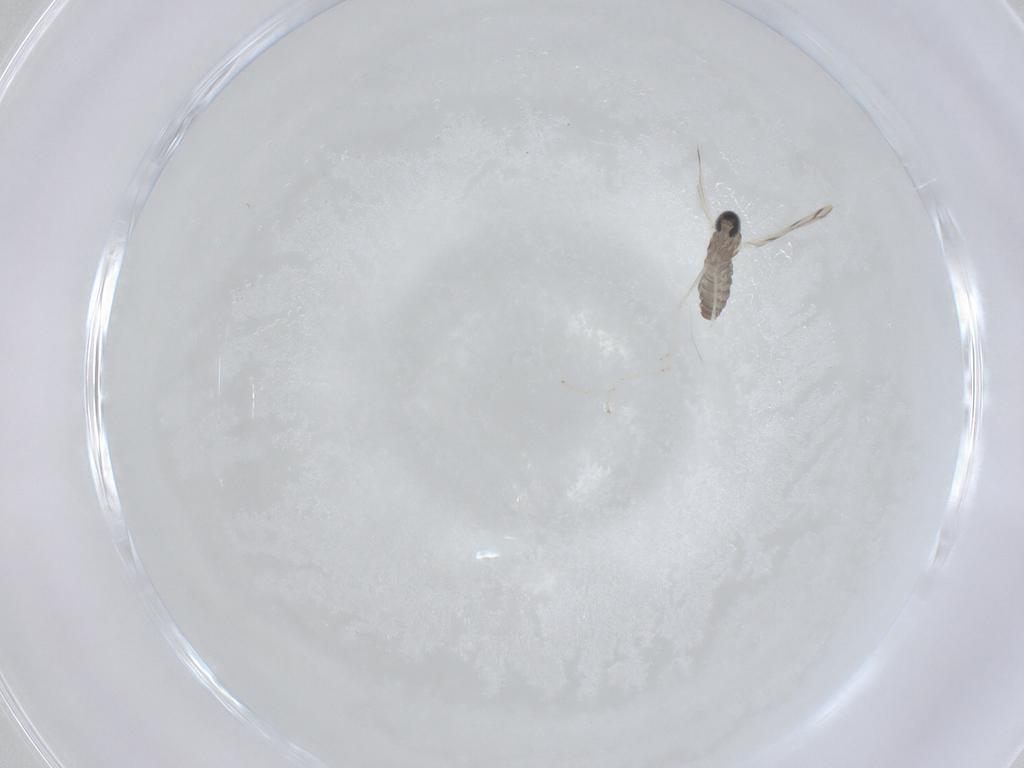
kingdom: Animalia
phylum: Arthropoda
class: Insecta
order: Diptera
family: Cecidomyiidae
